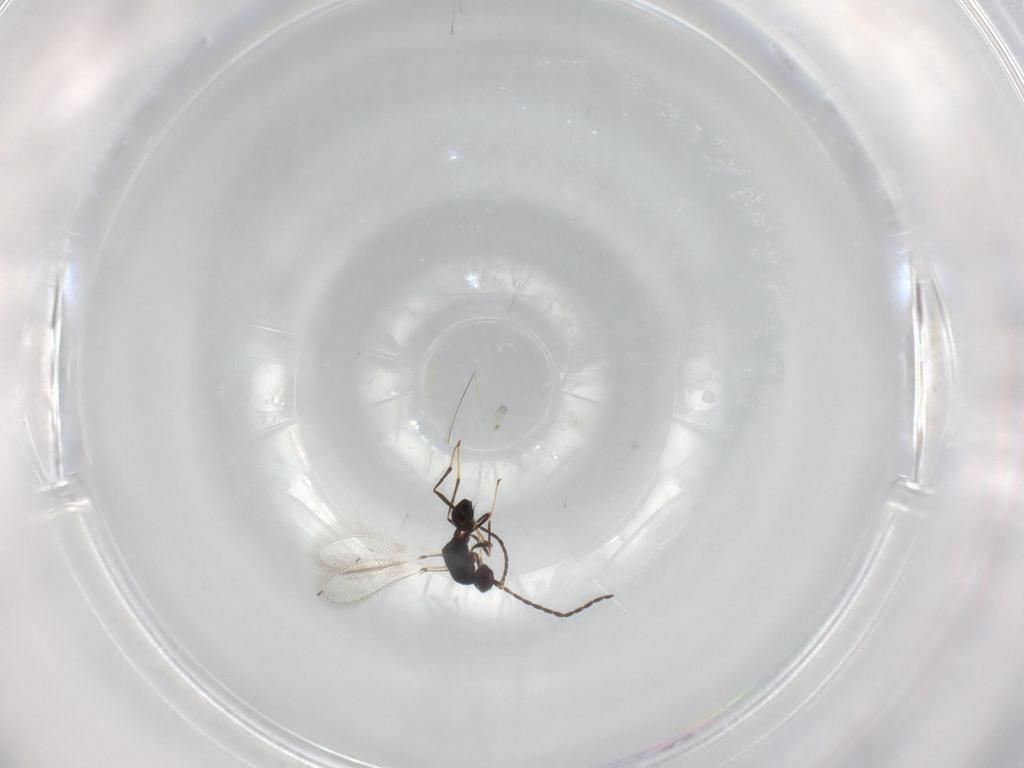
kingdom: Animalia
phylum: Arthropoda
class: Insecta
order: Hymenoptera
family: Mymaridae
